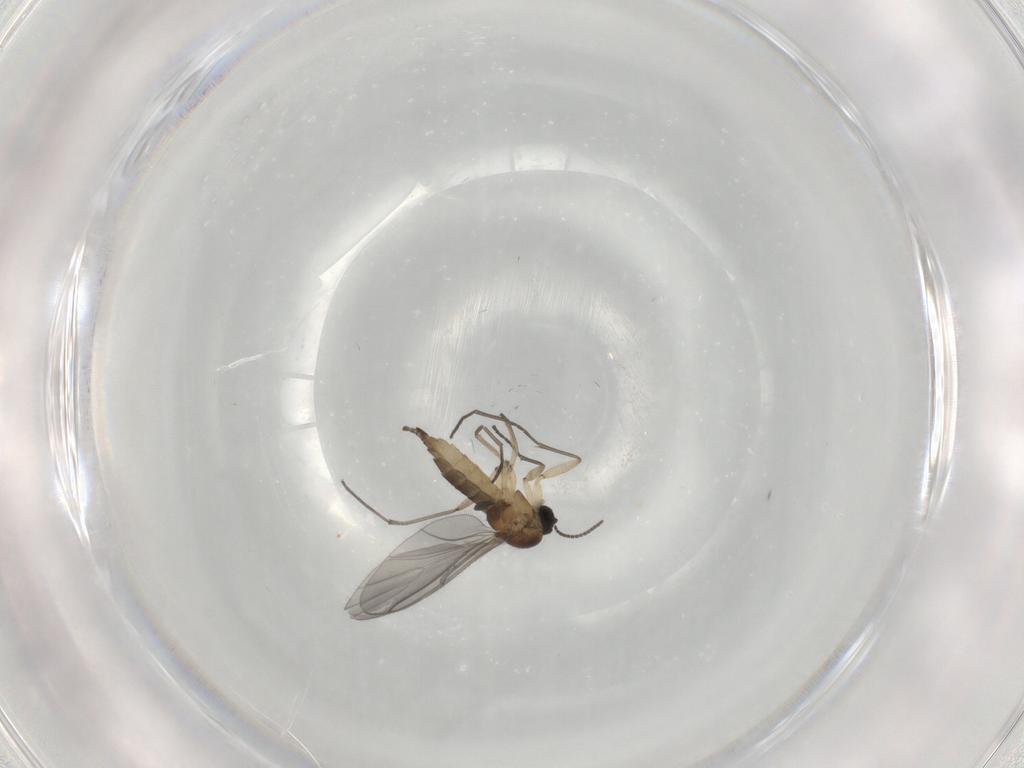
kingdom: Animalia
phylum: Arthropoda
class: Insecta
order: Diptera
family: Sciaridae
